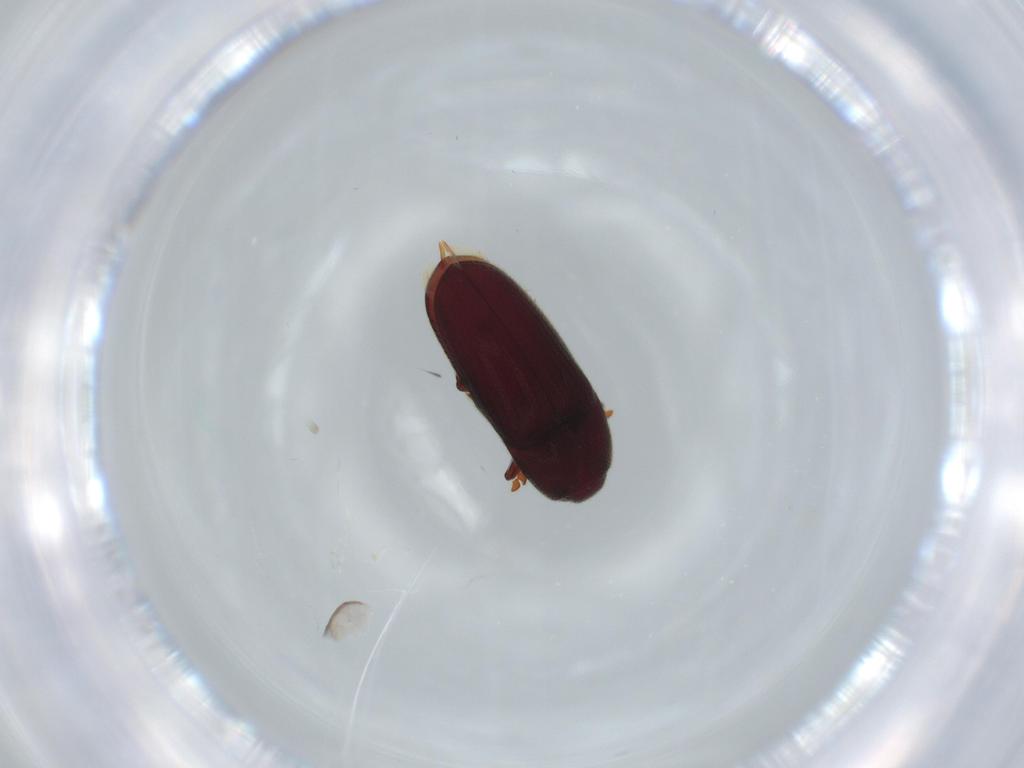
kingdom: Animalia
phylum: Arthropoda
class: Insecta
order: Coleoptera
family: Throscidae
